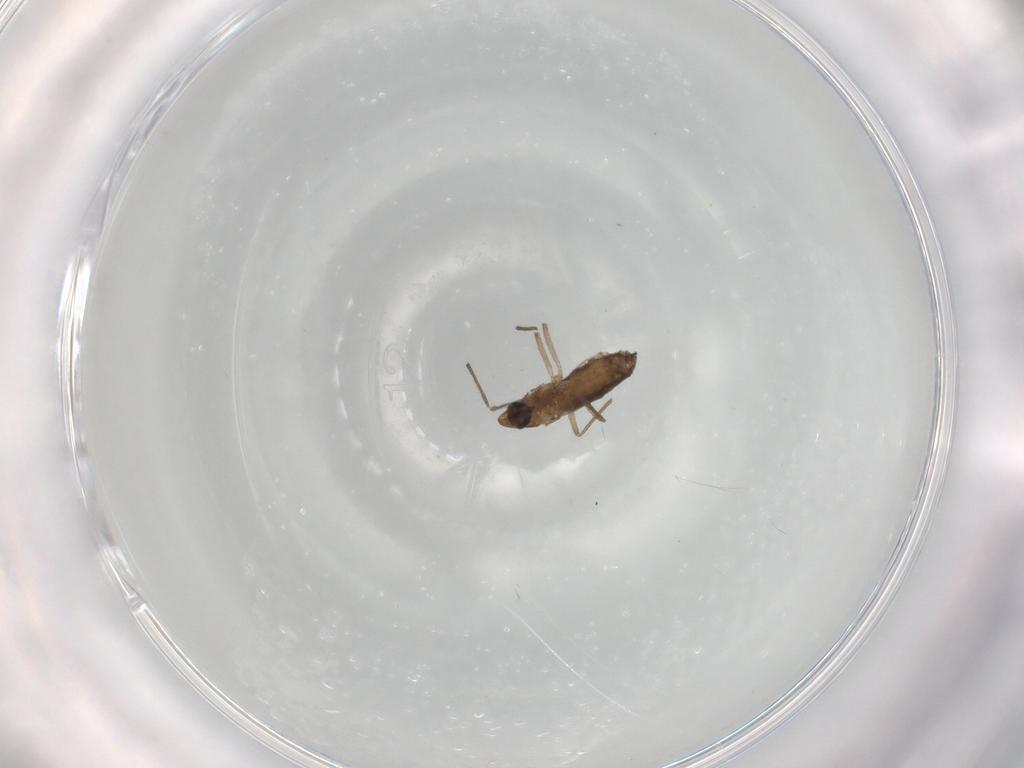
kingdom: Animalia
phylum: Arthropoda
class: Insecta
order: Diptera
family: Chironomidae
